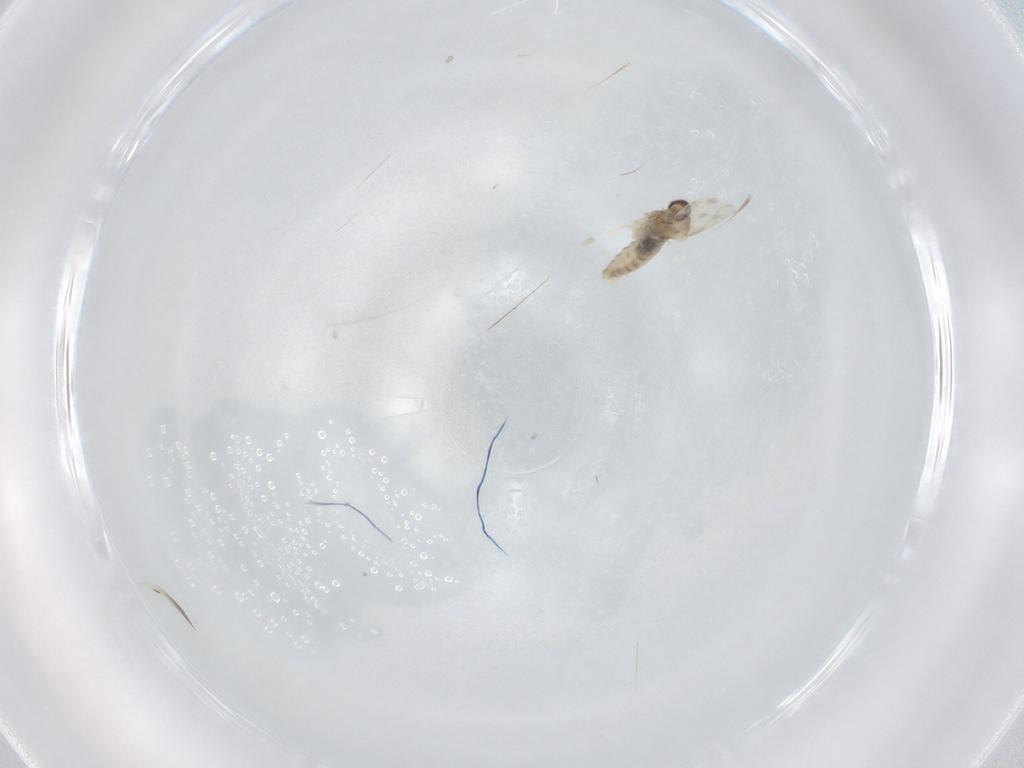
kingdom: Animalia
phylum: Arthropoda
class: Insecta
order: Diptera
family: Cecidomyiidae
